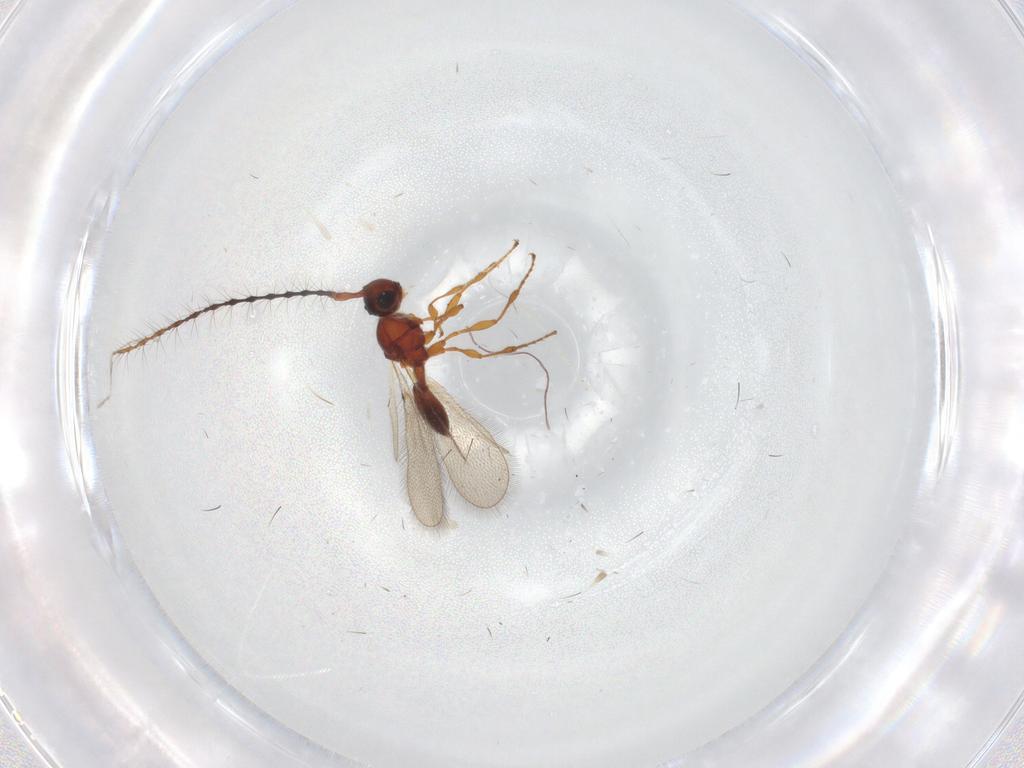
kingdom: Animalia
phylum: Arthropoda
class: Insecta
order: Hymenoptera
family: Diapriidae
